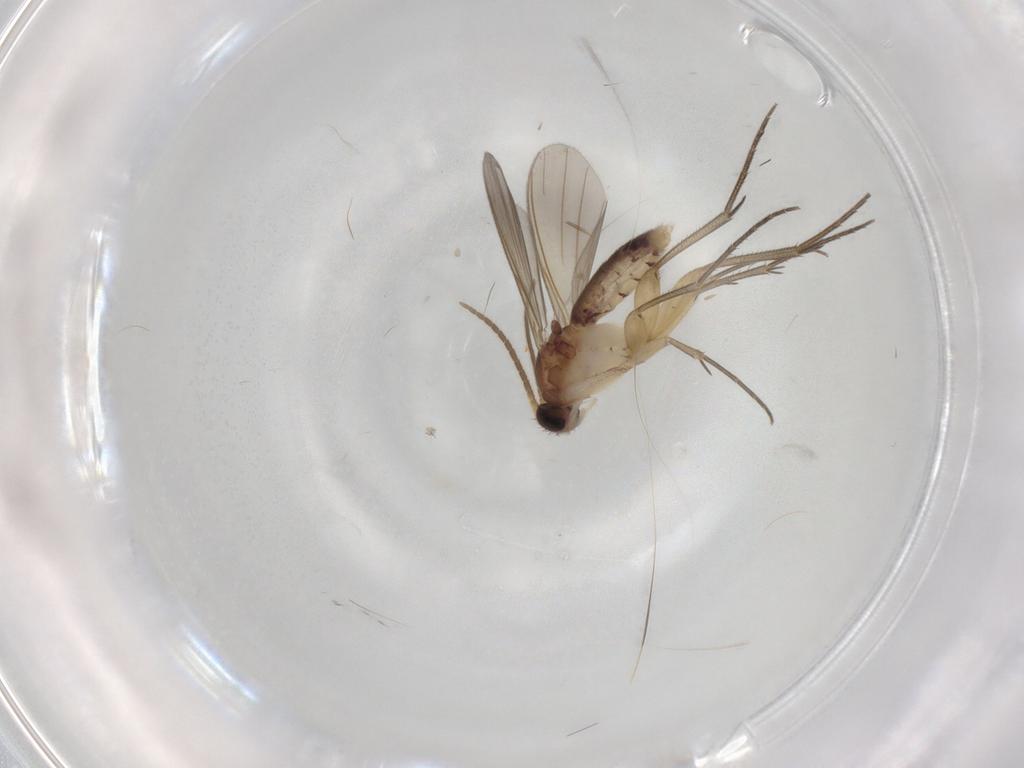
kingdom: Animalia
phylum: Arthropoda
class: Insecta
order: Diptera
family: Mycetophilidae
